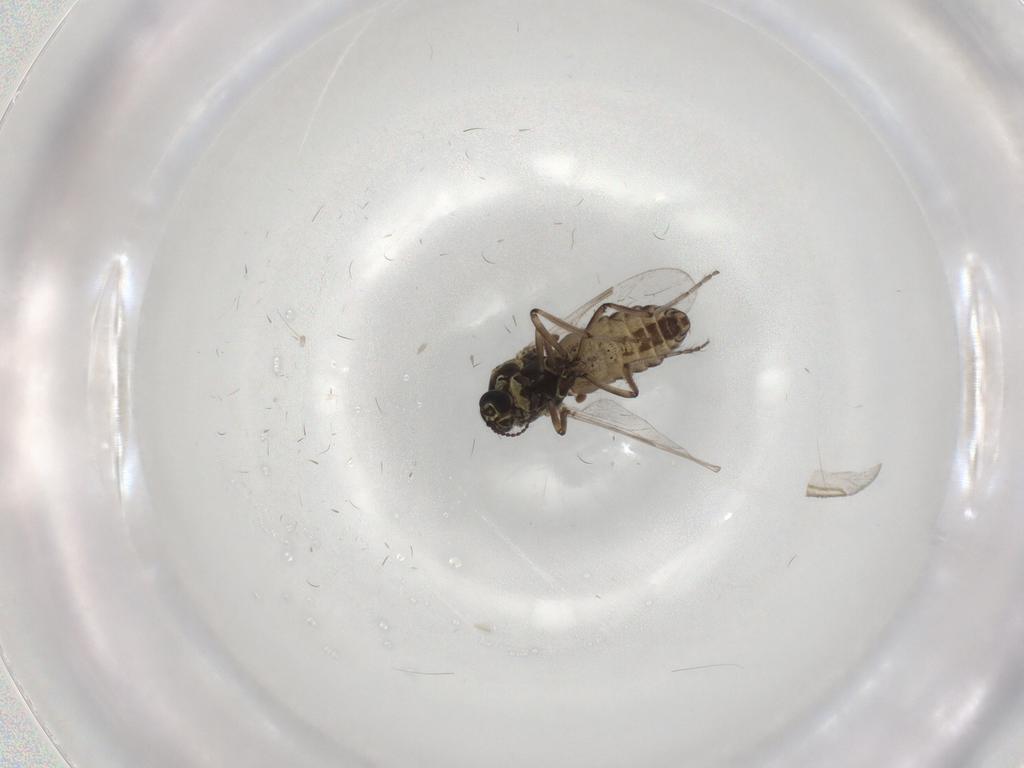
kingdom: Animalia
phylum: Arthropoda
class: Insecta
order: Diptera
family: Ceratopogonidae
